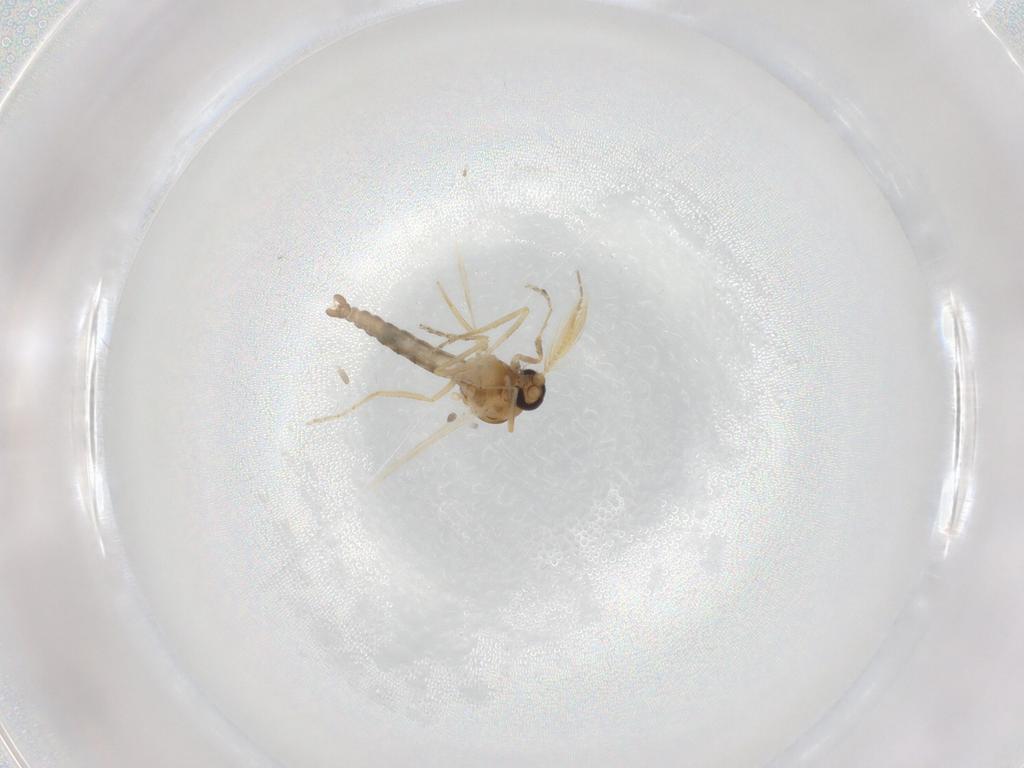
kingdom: Animalia
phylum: Arthropoda
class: Insecta
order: Diptera
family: Ceratopogonidae
